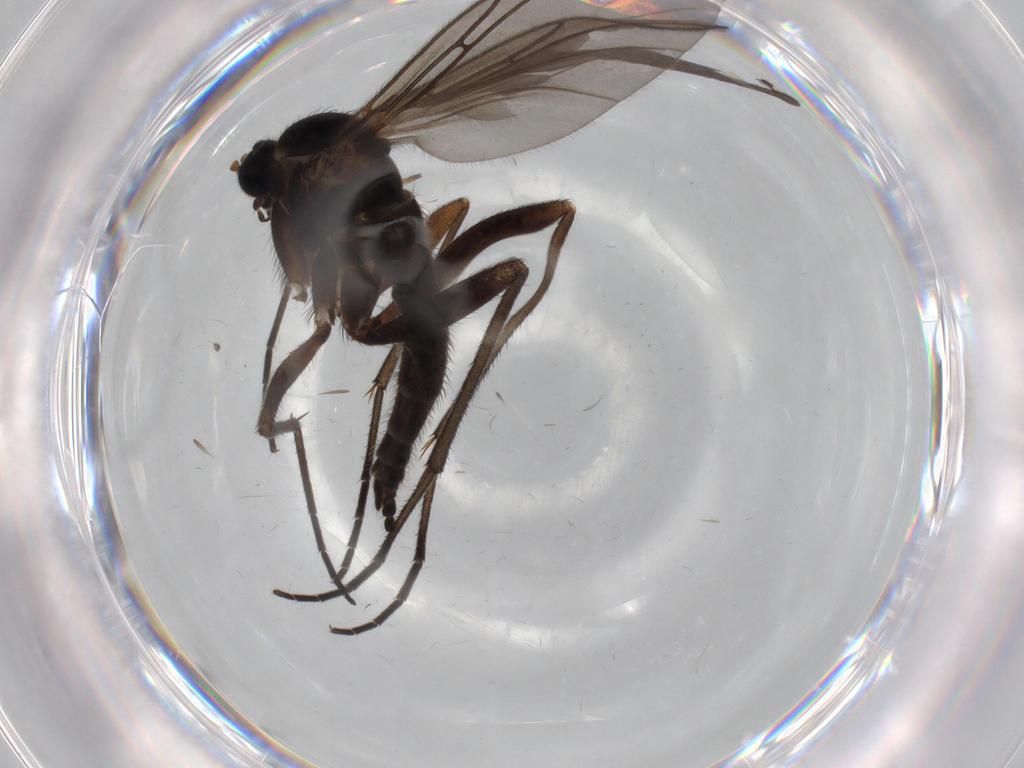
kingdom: Animalia
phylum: Arthropoda
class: Insecta
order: Diptera
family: Sciaridae
